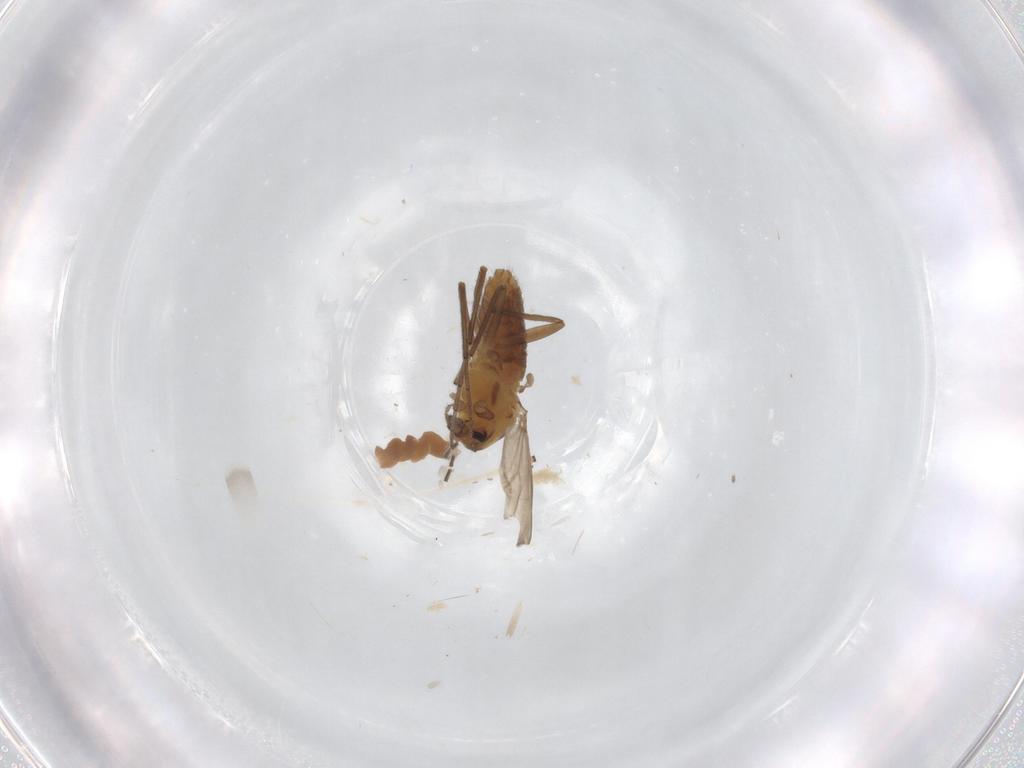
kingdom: Animalia
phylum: Arthropoda
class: Insecta
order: Diptera
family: Chironomidae
